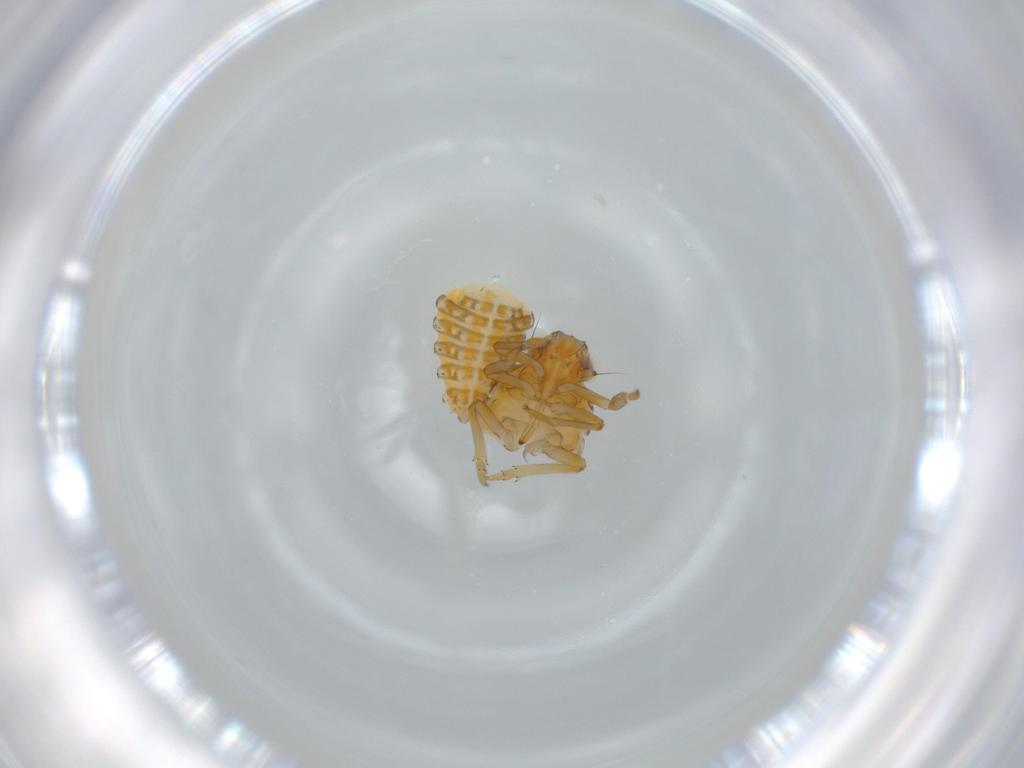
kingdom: Animalia
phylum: Arthropoda
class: Insecta
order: Hemiptera
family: Issidae
